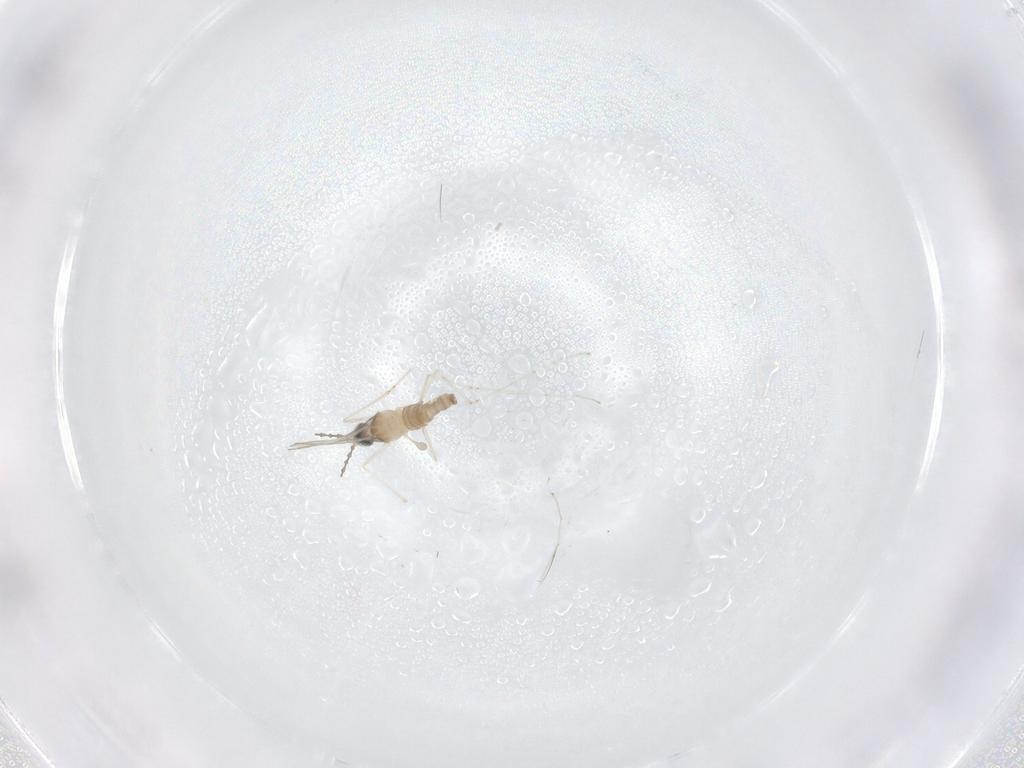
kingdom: Animalia
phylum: Arthropoda
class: Insecta
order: Diptera
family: Cecidomyiidae
